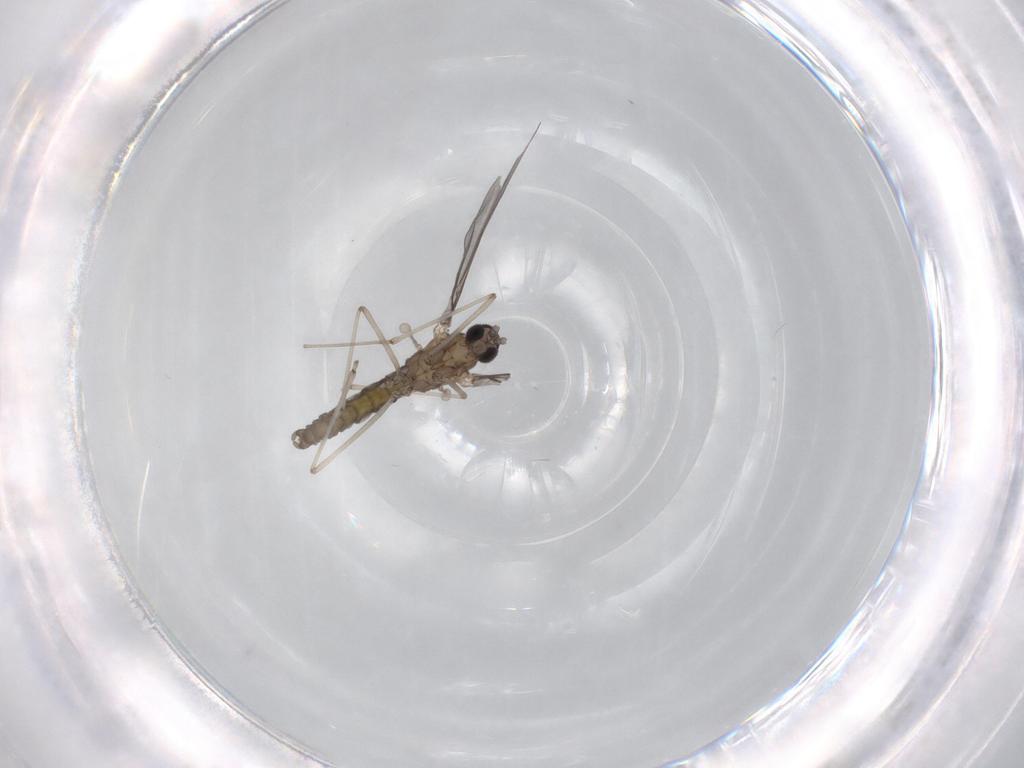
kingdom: Animalia
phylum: Arthropoda
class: Insecta
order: Diptera
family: Cecidomyiidae
